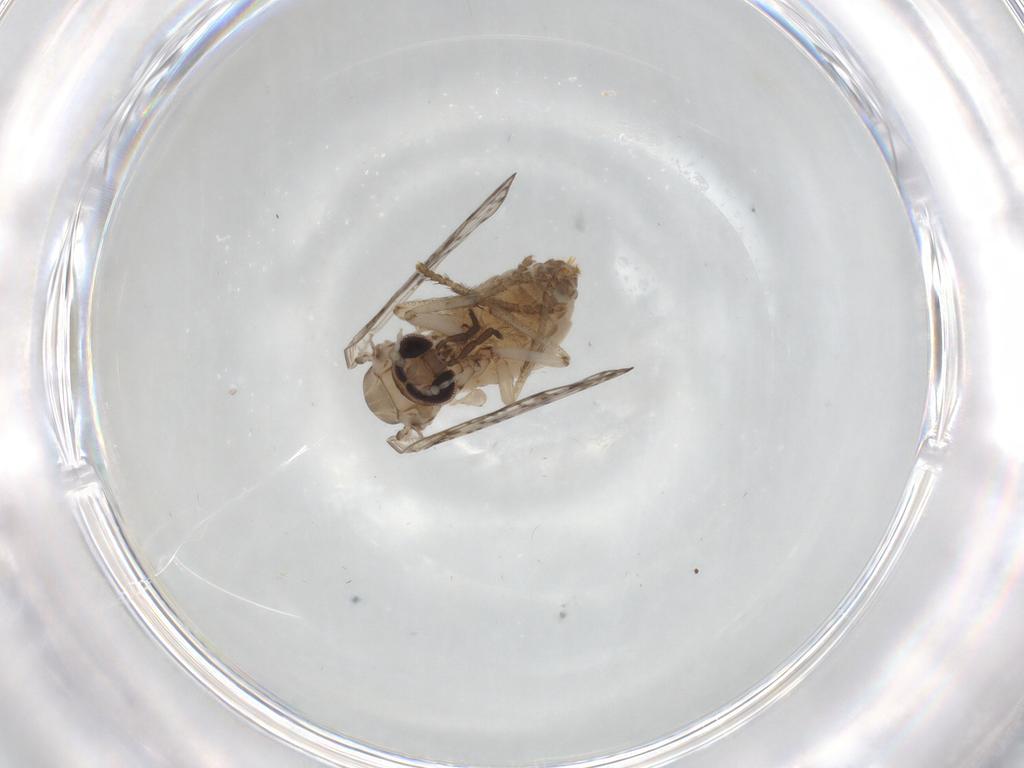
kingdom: Animalia
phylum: Arthropoda
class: Insecta
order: Diptera
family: Psychodidae
